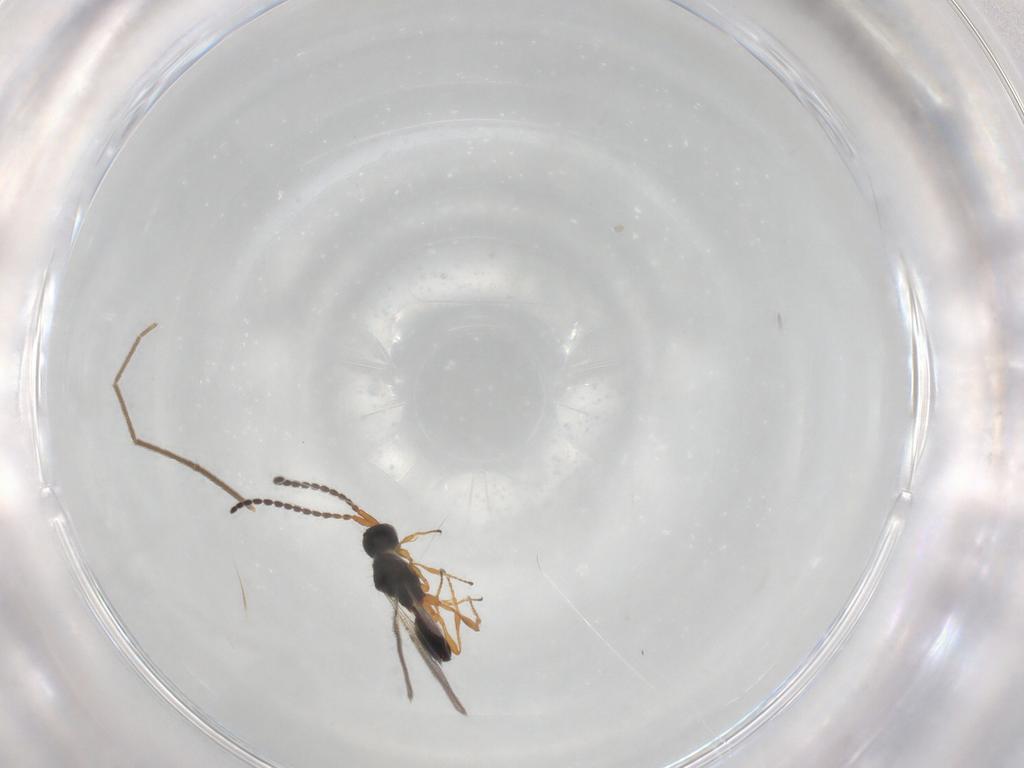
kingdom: Animalia
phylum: Arthropoda
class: Insecta
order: Hymenoptera
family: Diapriidae
